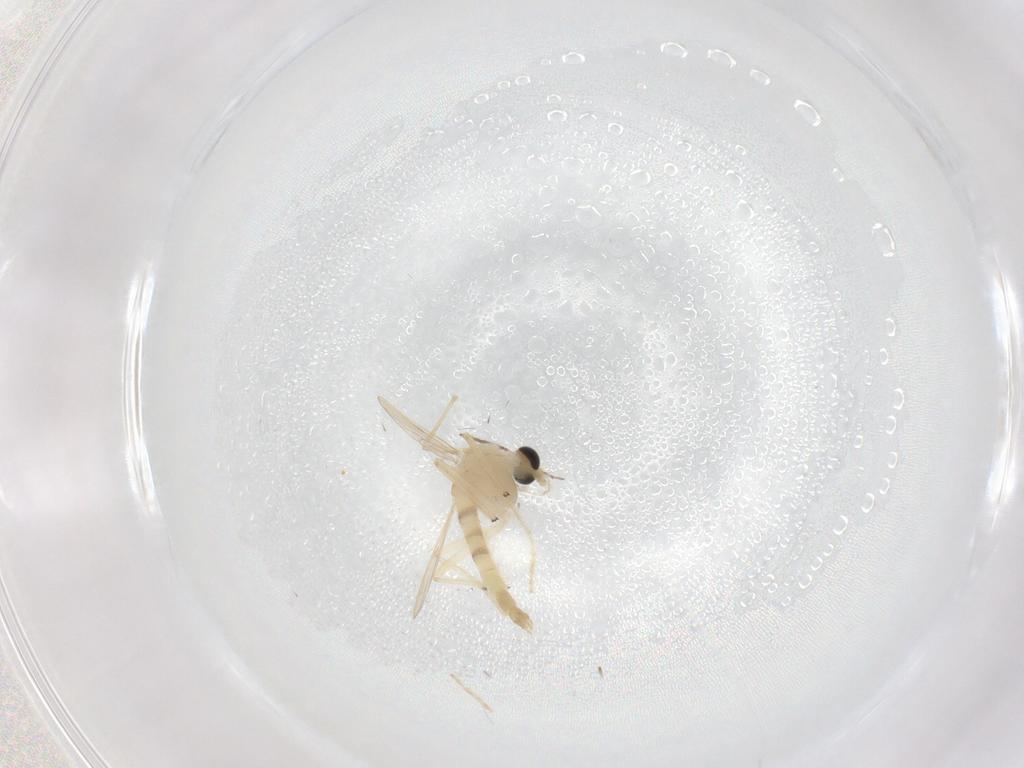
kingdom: Animalia
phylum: Arthropoda
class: Insecta
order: Diptera
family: Chironomidae
